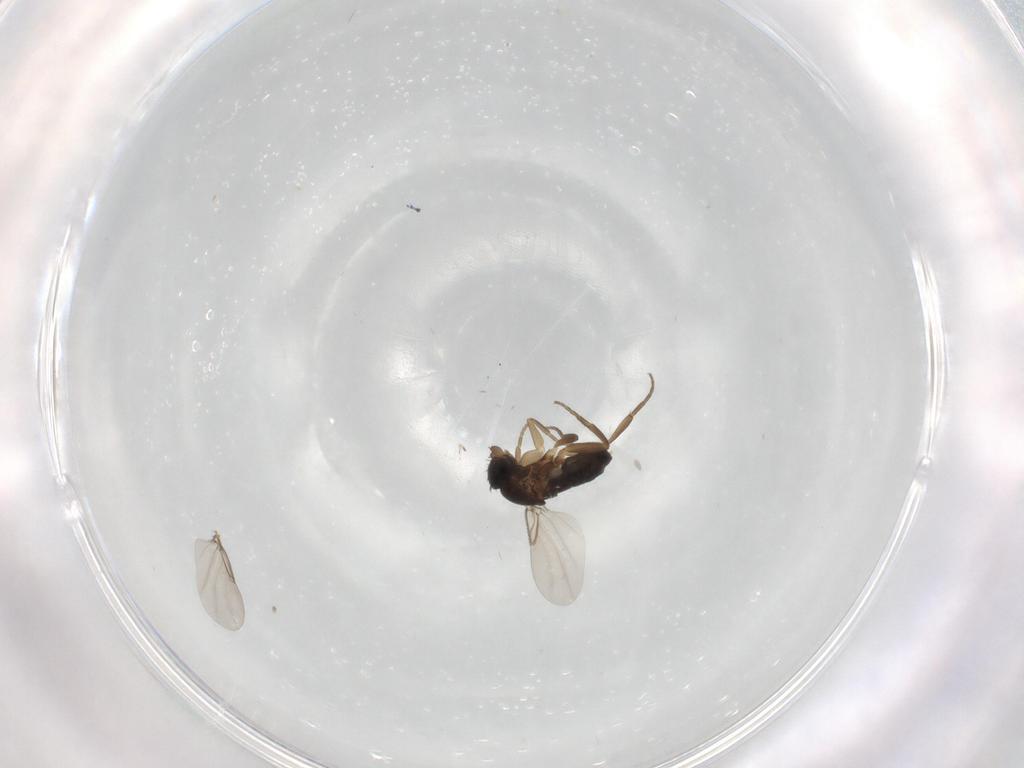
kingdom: Animalia
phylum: Arthropoda
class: Insecta
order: Diptera
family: Phoridae
